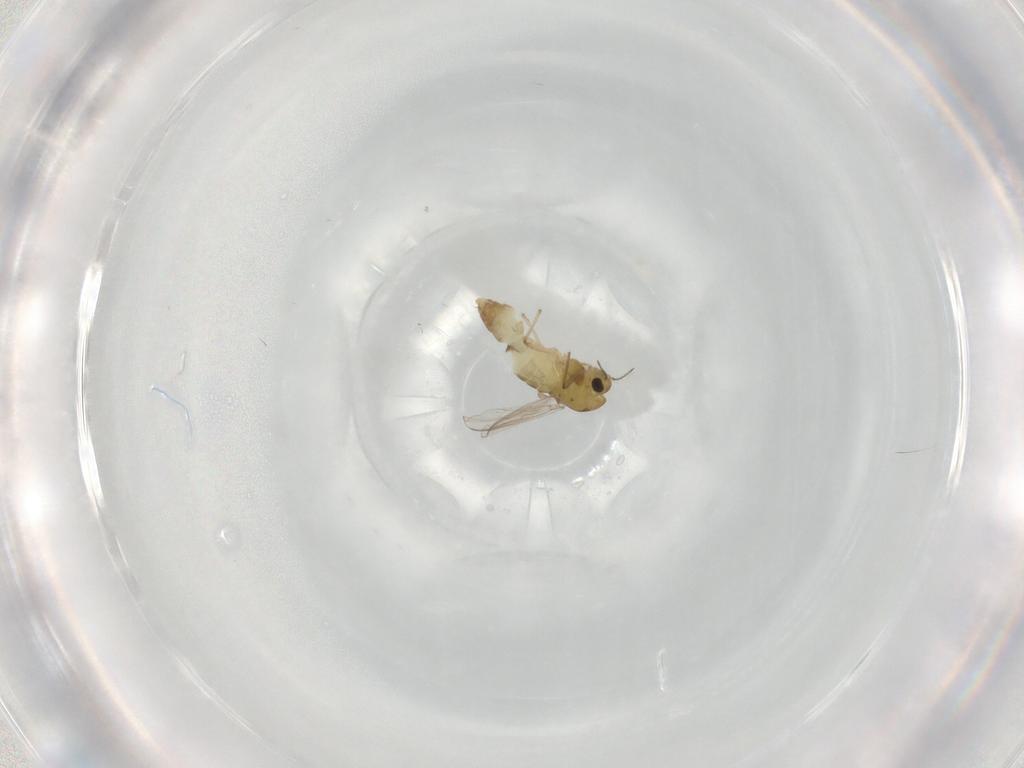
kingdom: Animalia
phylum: Arthropoda
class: Insecta
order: Diptera
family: Chironomidae
